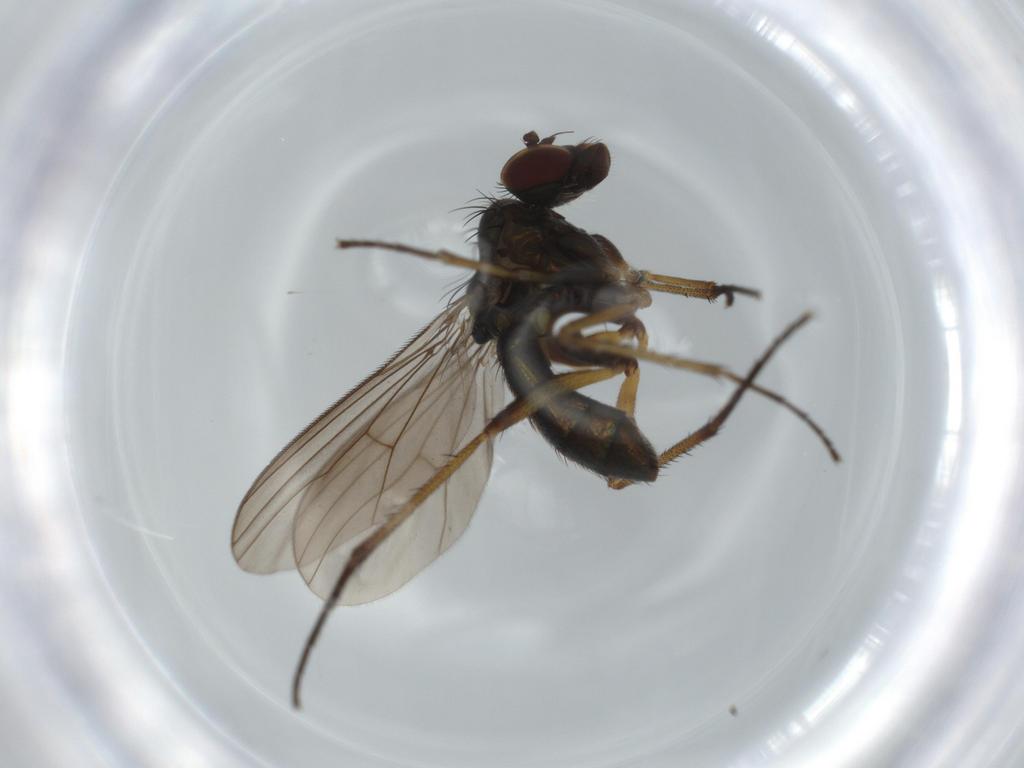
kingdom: Animalia
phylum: Arthropoda
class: Insecta
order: Diptera
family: Dolichopodidae
